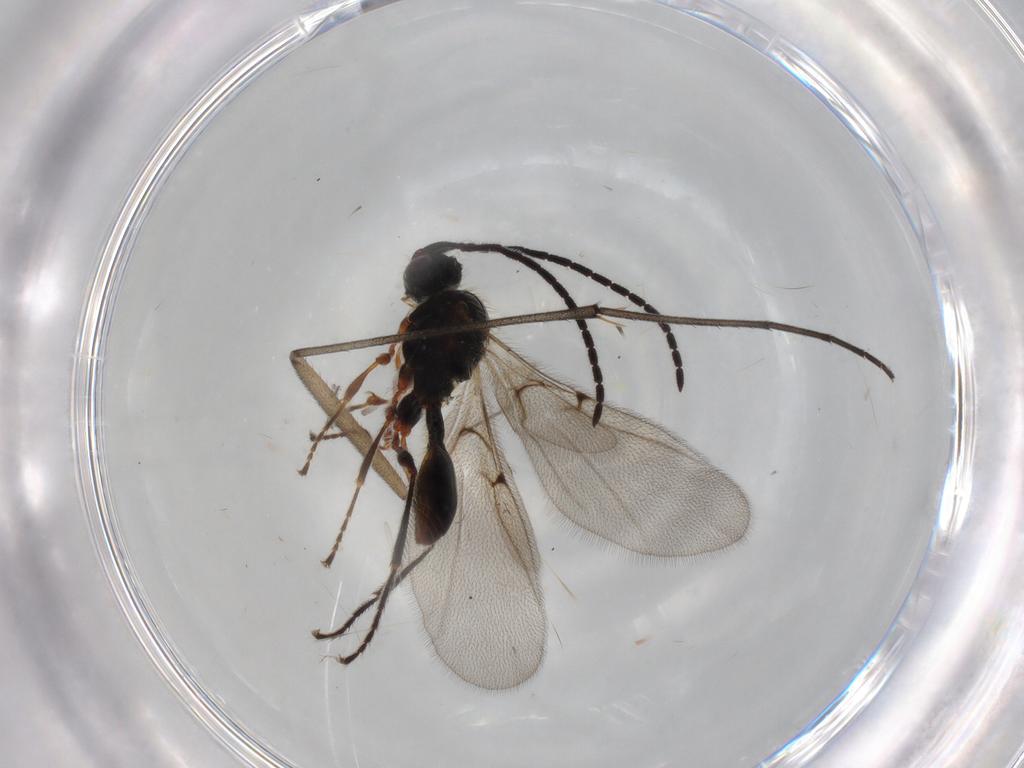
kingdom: Animalia
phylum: Arthropoda
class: Insecta
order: Hymenoptera
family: Diapriidae
